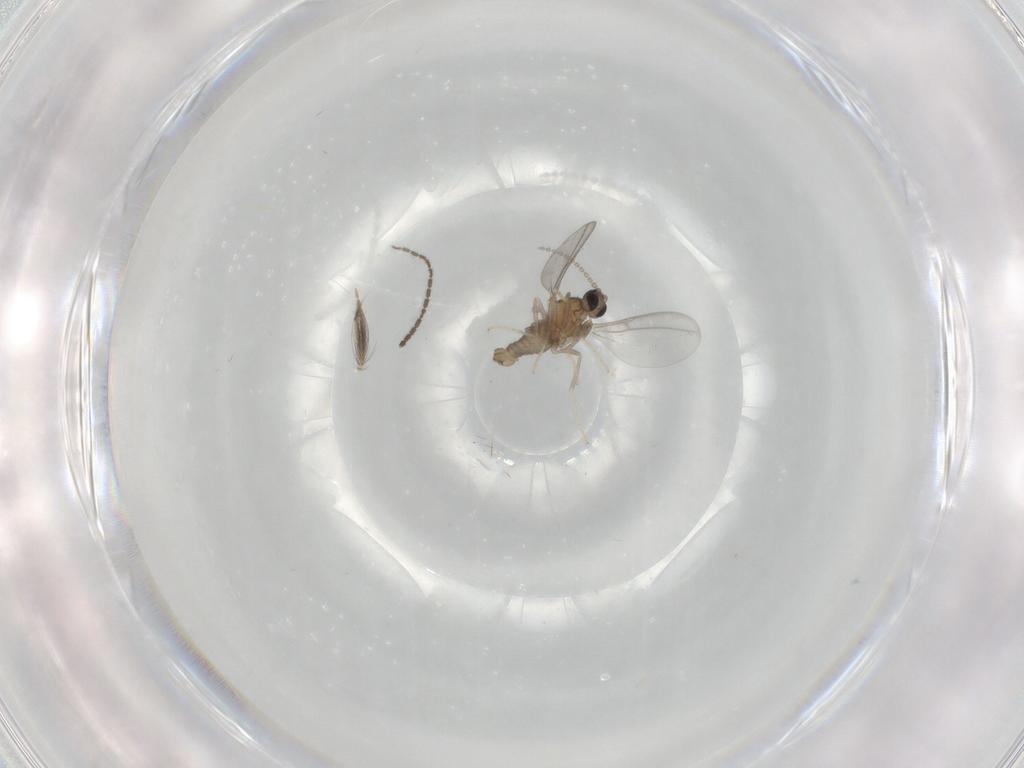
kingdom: Animalia
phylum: Arthropoda
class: Insecta
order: Diptera
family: Ceratopogonidae
